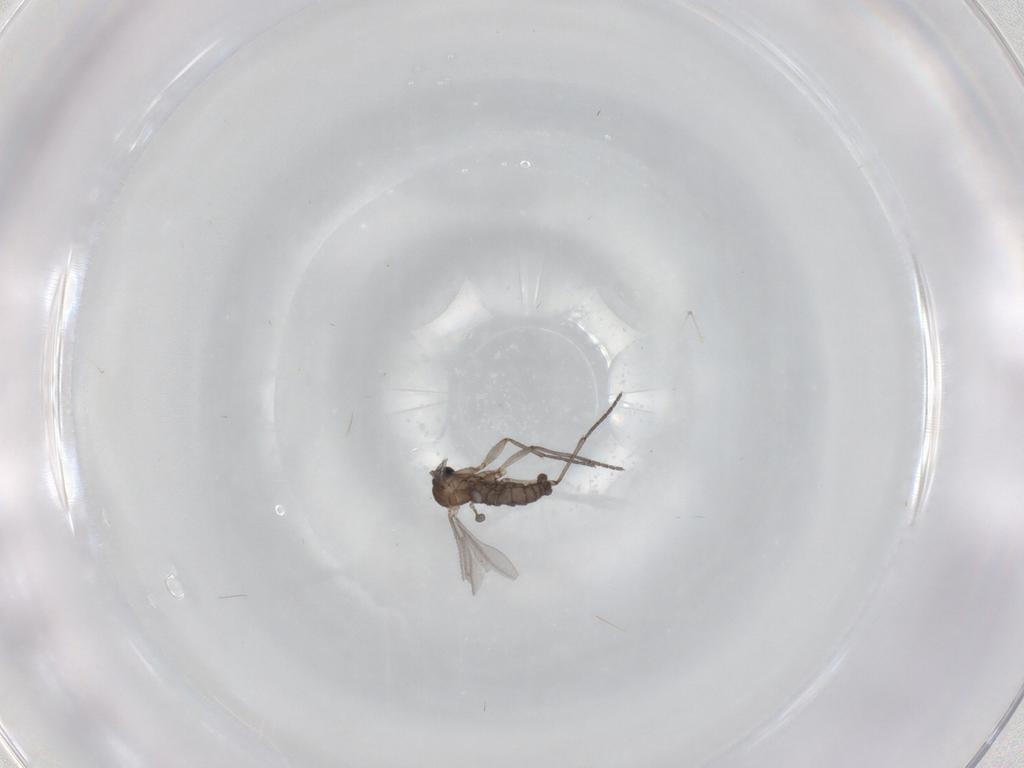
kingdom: Animalia
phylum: Arthropoda
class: Insecta
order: Diptera
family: Sciaridae
